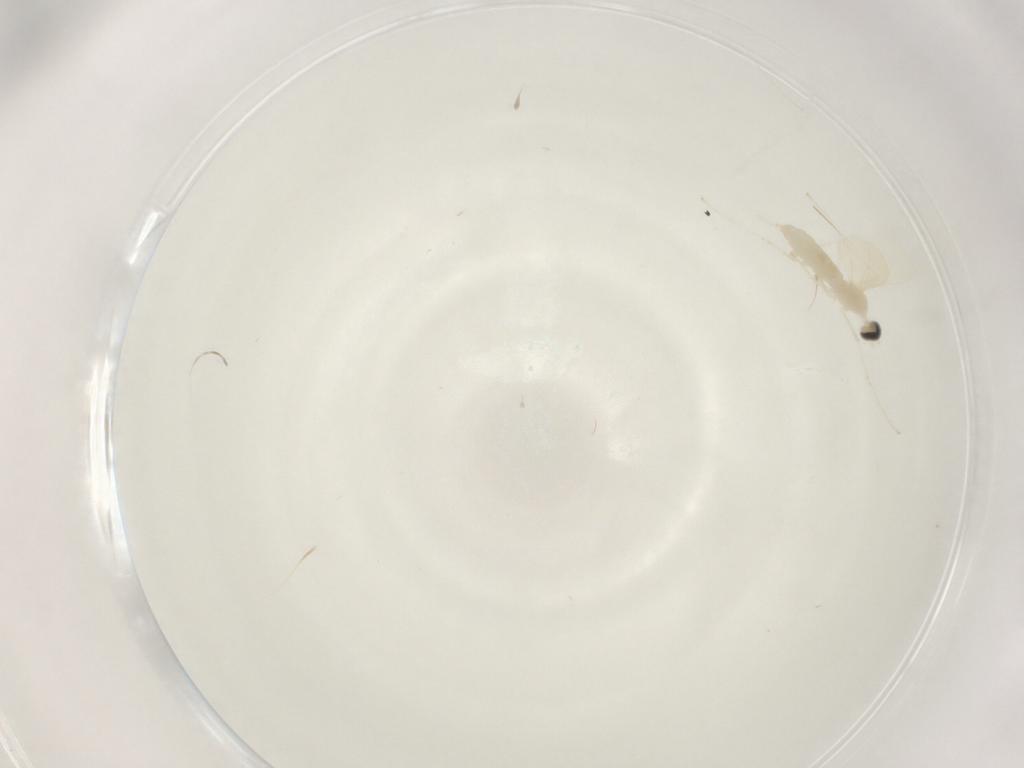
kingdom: Animalia
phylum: Arthropoda
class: Insecta
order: Diptera
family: Cecidomyiidae
